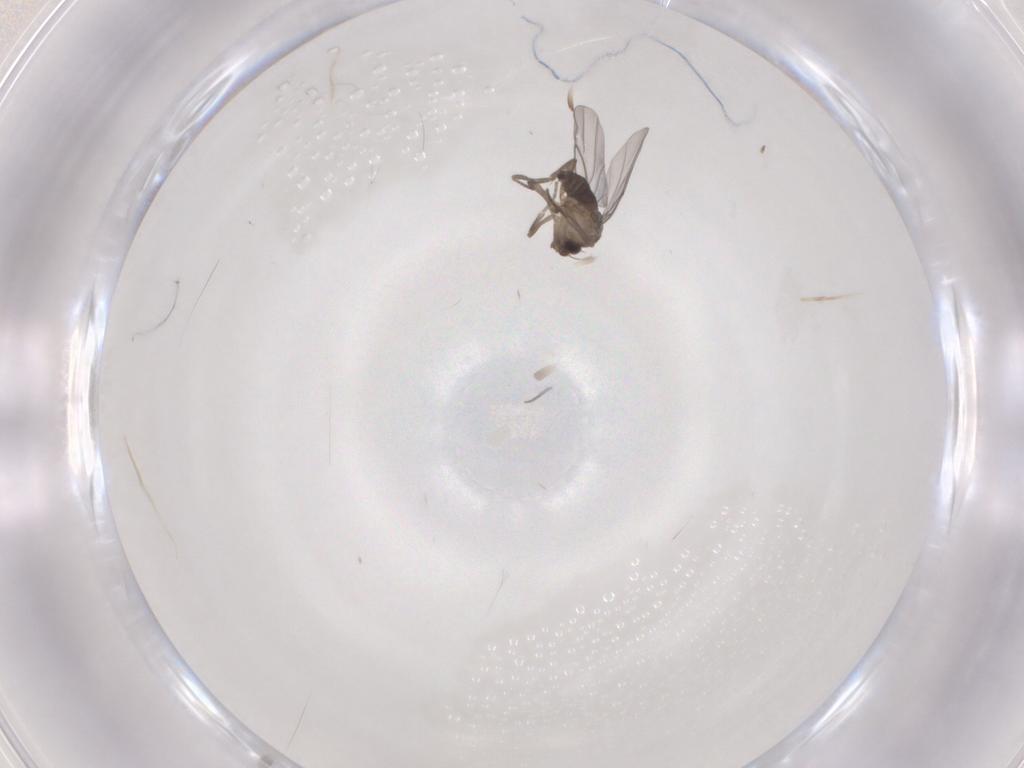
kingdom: Animalia
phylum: Arthropoda
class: Insecta
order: Diptera
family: Phoridae
